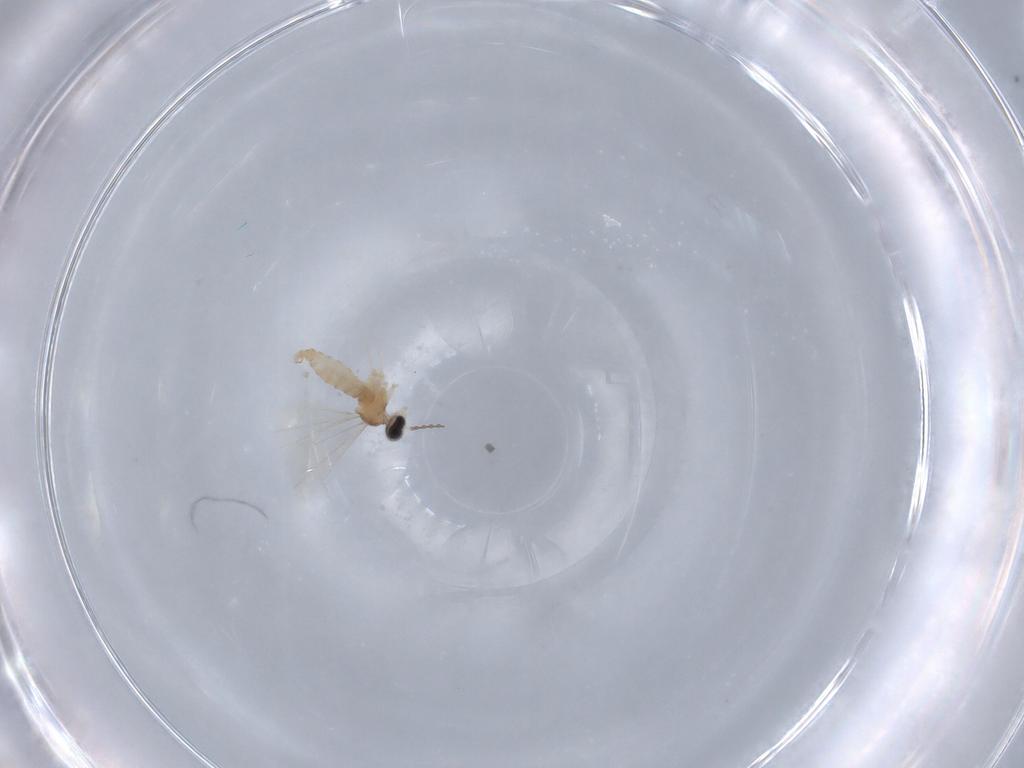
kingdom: Animalia
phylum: Arthropoda
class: Insecta
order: Diptera
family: Cecidomyiidae
